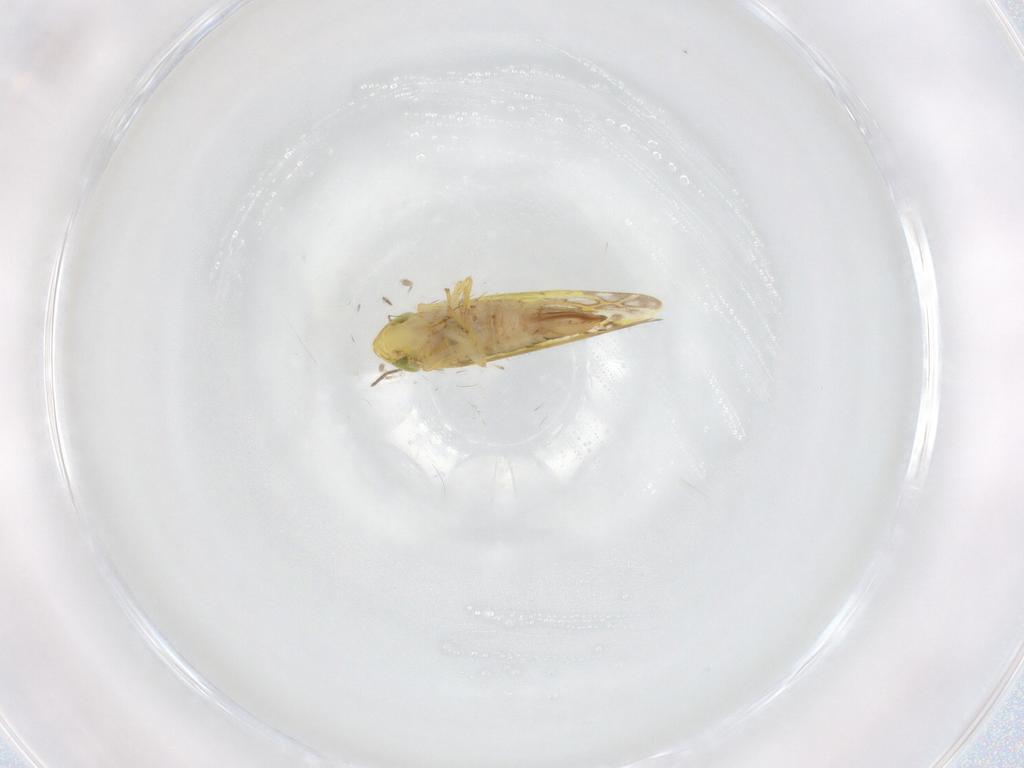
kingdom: Animalia
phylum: Arthropoda
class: Insecta
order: Hemiptera
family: Cicadellidae
